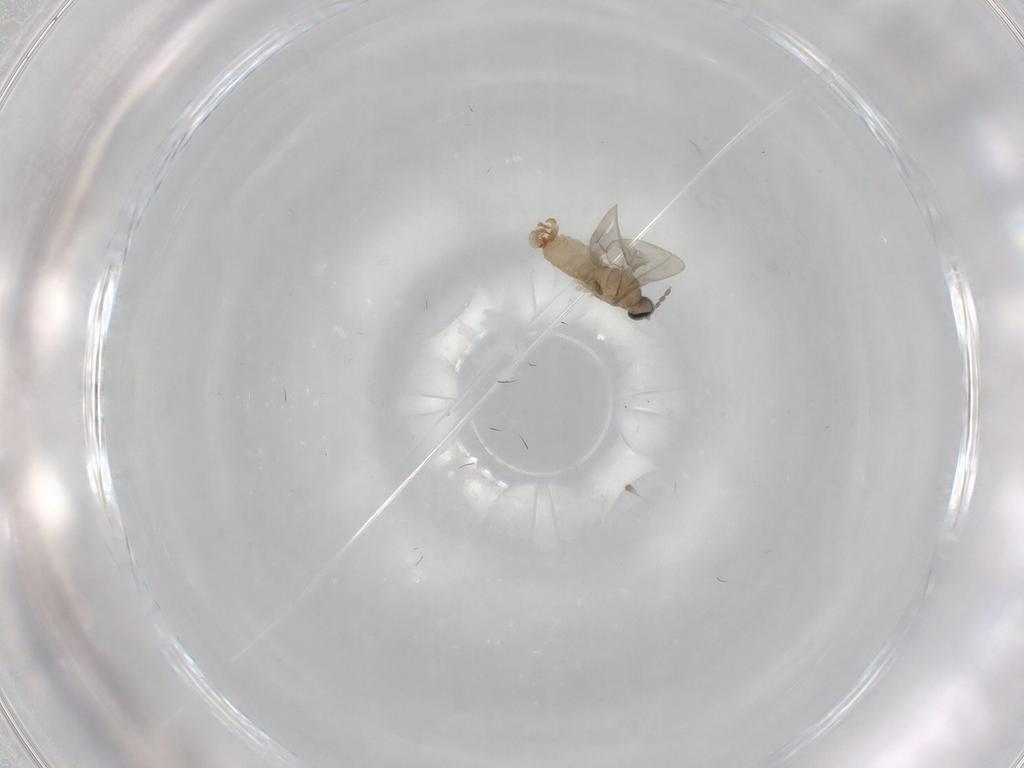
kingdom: Animalia
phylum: Arthropoda
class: Insecta
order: Diptera
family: Cecidomyiidae
